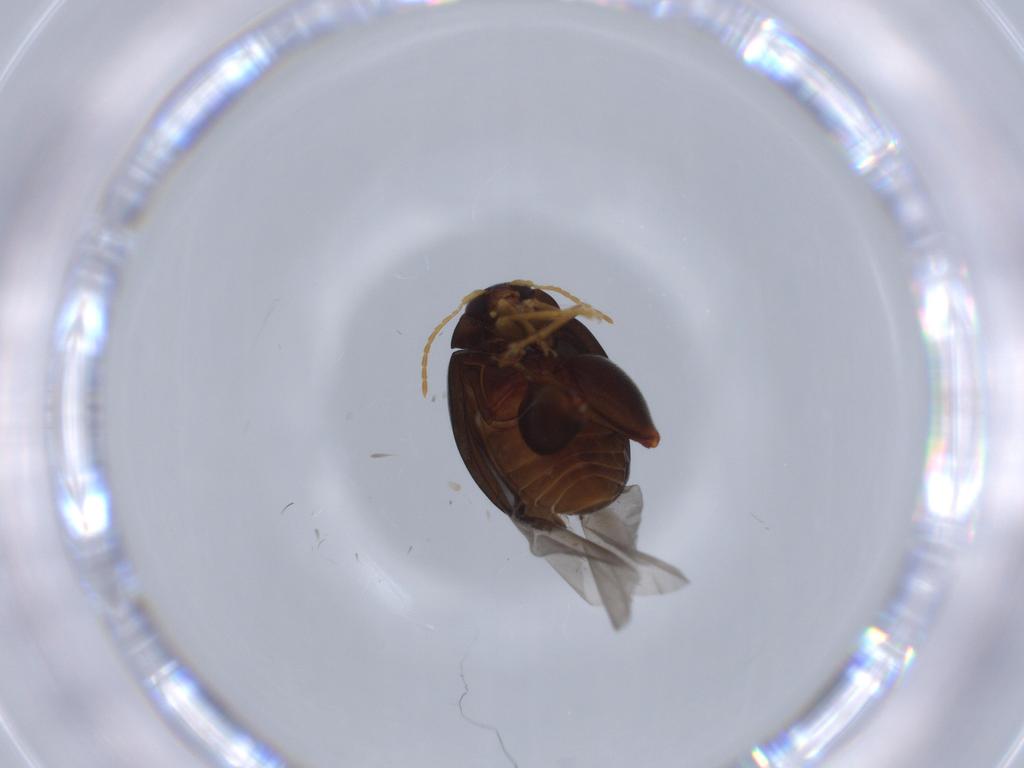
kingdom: Animalia
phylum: Arthropoda
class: Insecta
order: Coleoptera
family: Chrysomelidae
